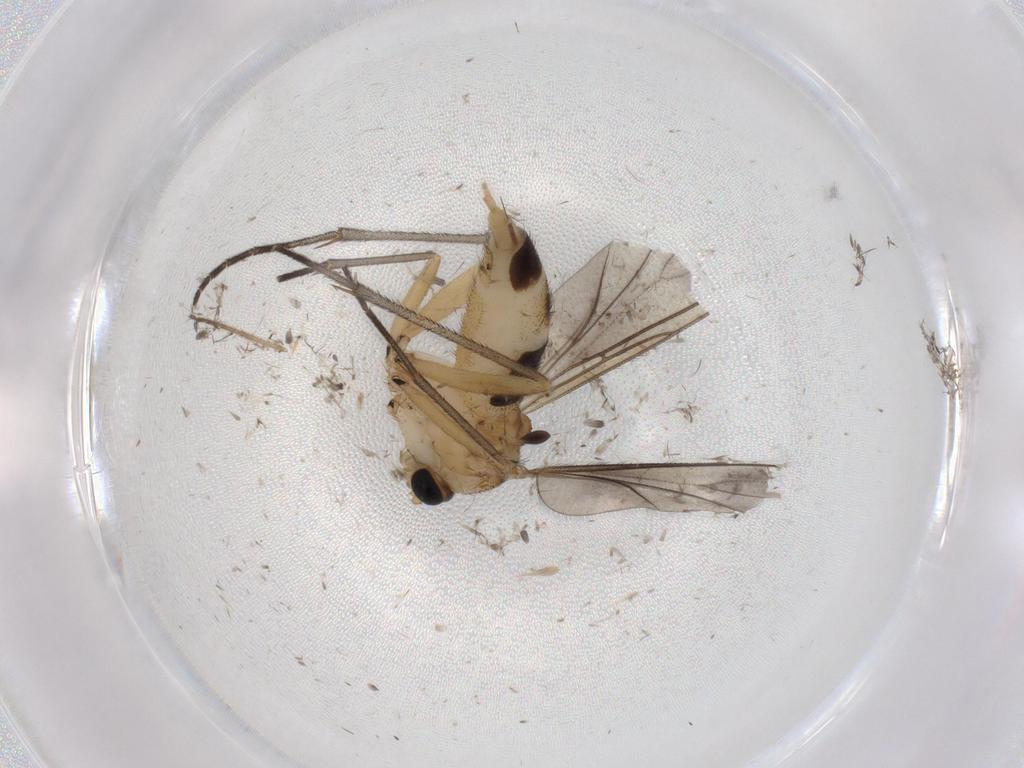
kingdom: Animalia
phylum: Arthropoda
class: Insecta
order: Diptera
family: Sciaridae
